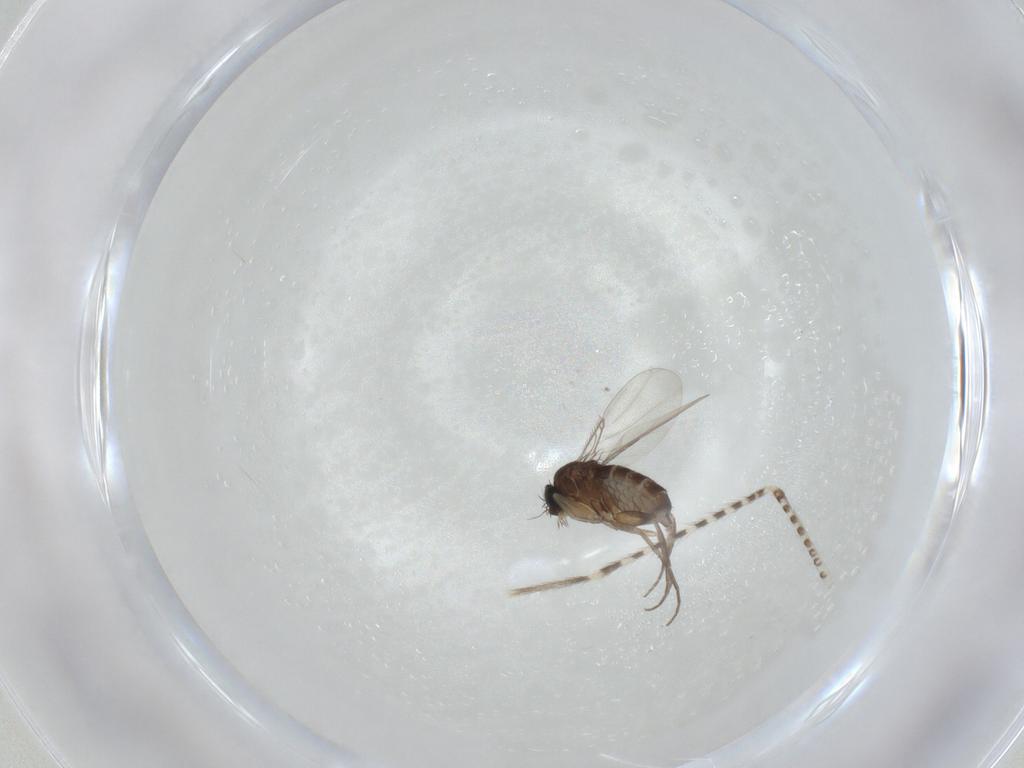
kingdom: Animalia
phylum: Arthropoda
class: Insecta
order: Diptera
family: Chaoboridae
